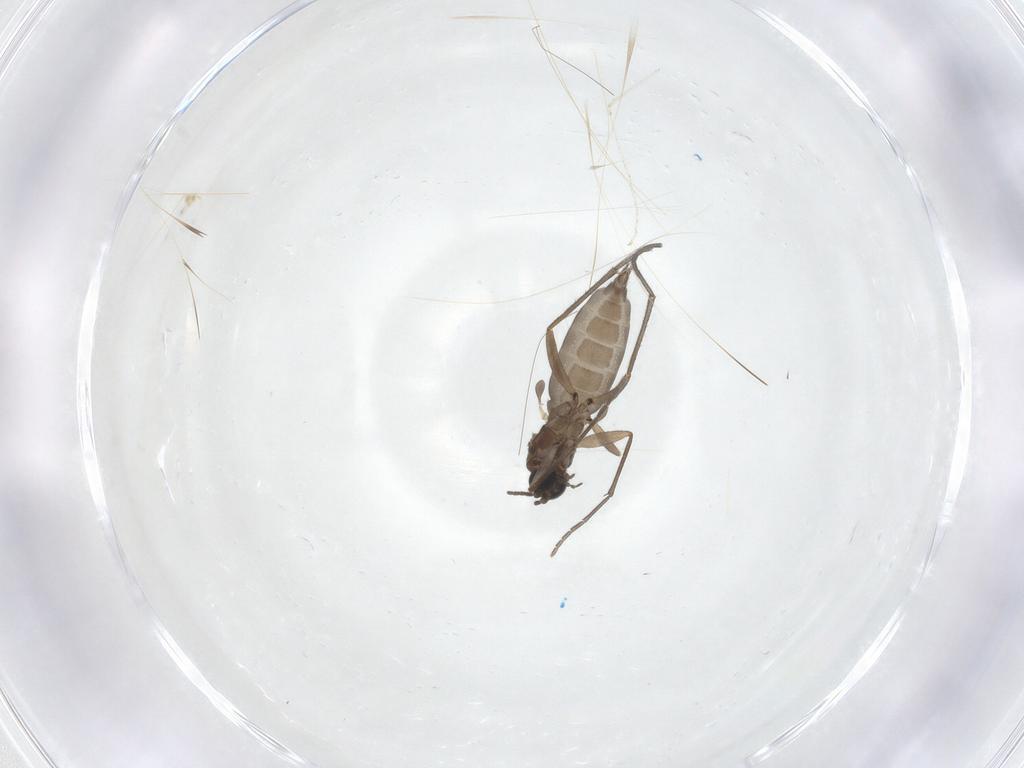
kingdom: Animalia
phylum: Arthropoda
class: Insecta
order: Diptera
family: Sciaridae
